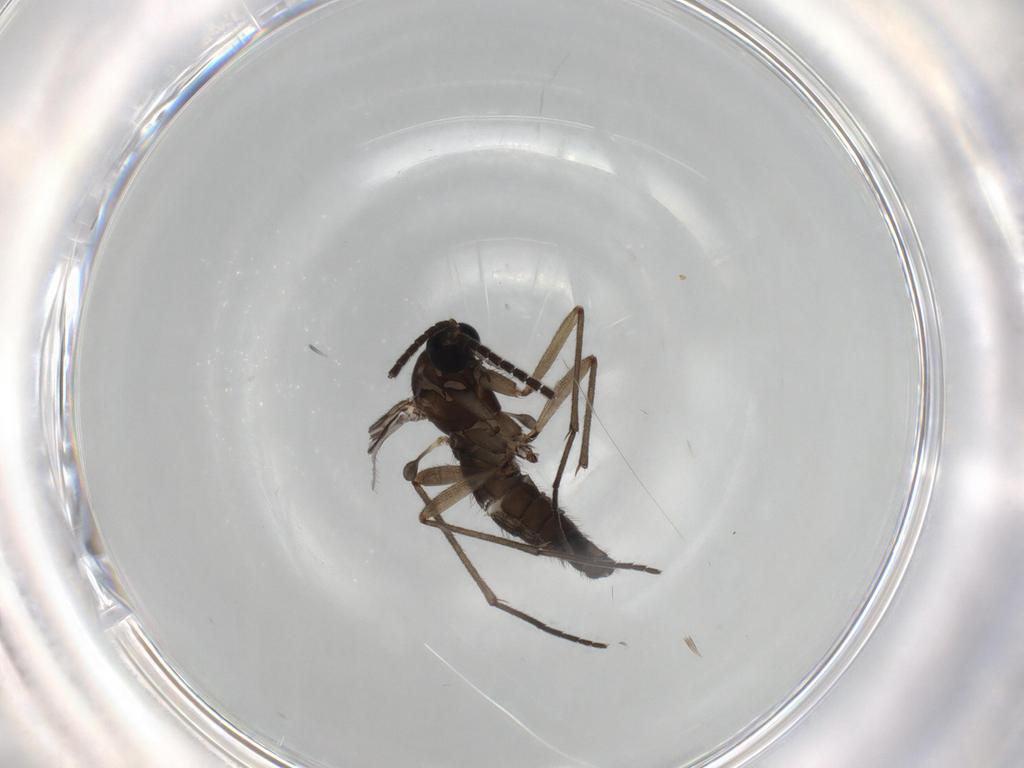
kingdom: Animalia
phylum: Arthropoda
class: Insecta
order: Diptera
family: Sciaridae
